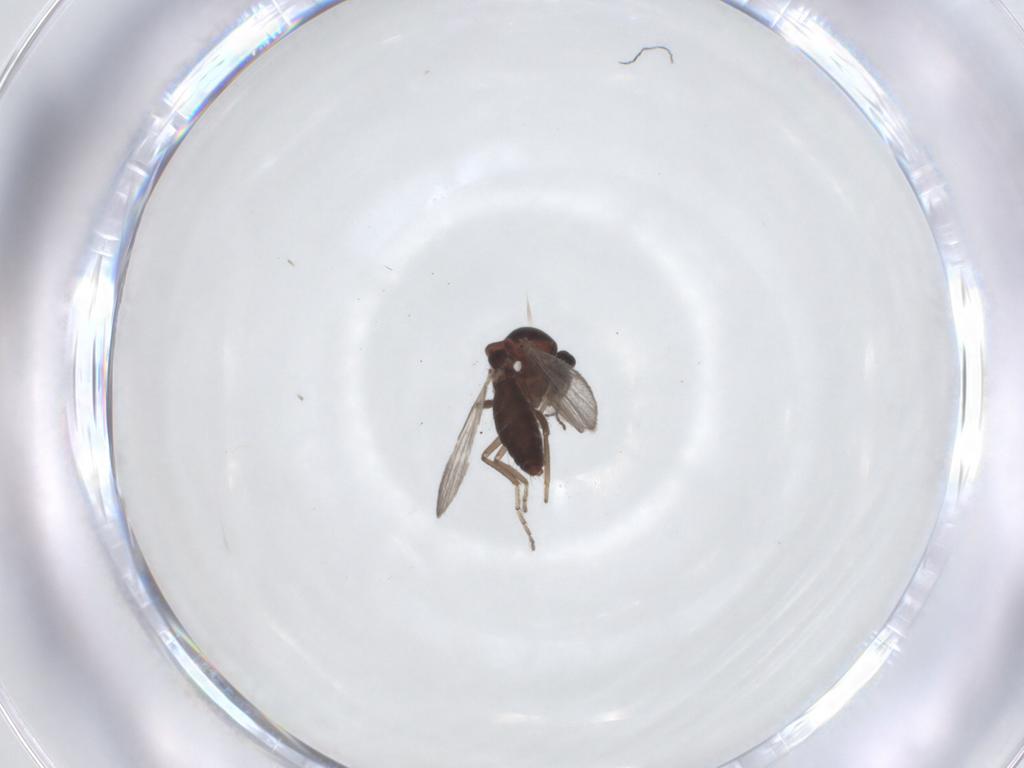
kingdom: Animalia
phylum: Arthropoda
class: Insecta
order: Diptera
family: Ceratopogonidae
